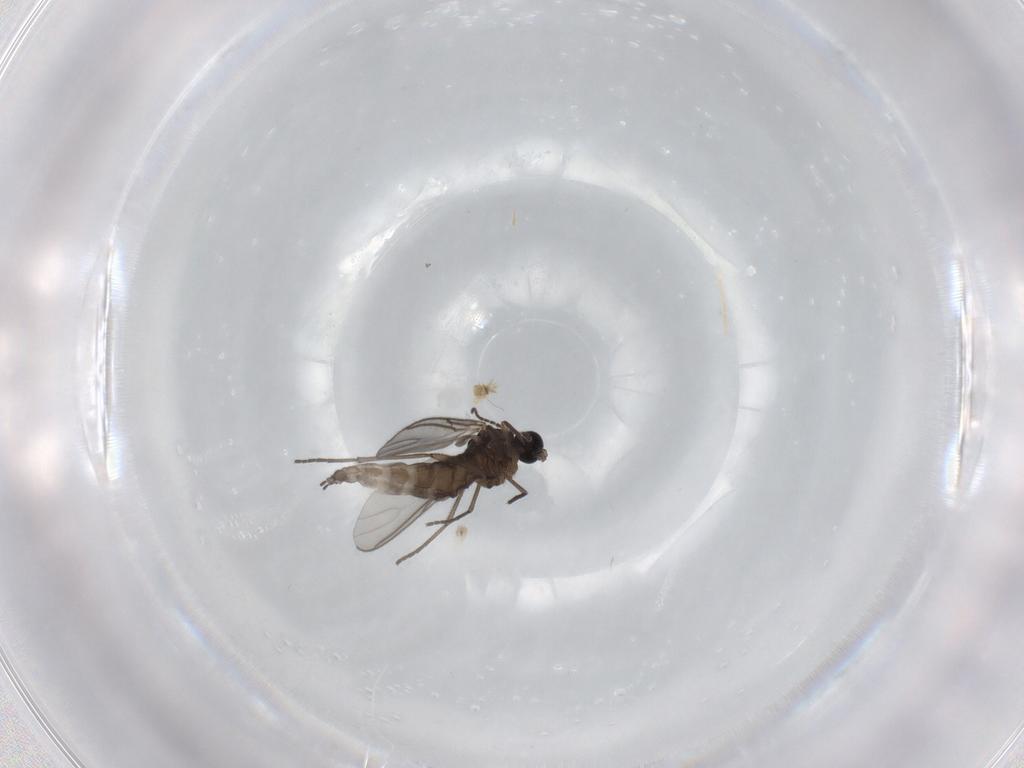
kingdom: Animalia
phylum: Arthropoda
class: Insecta
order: Diptera
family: Sciaridae
